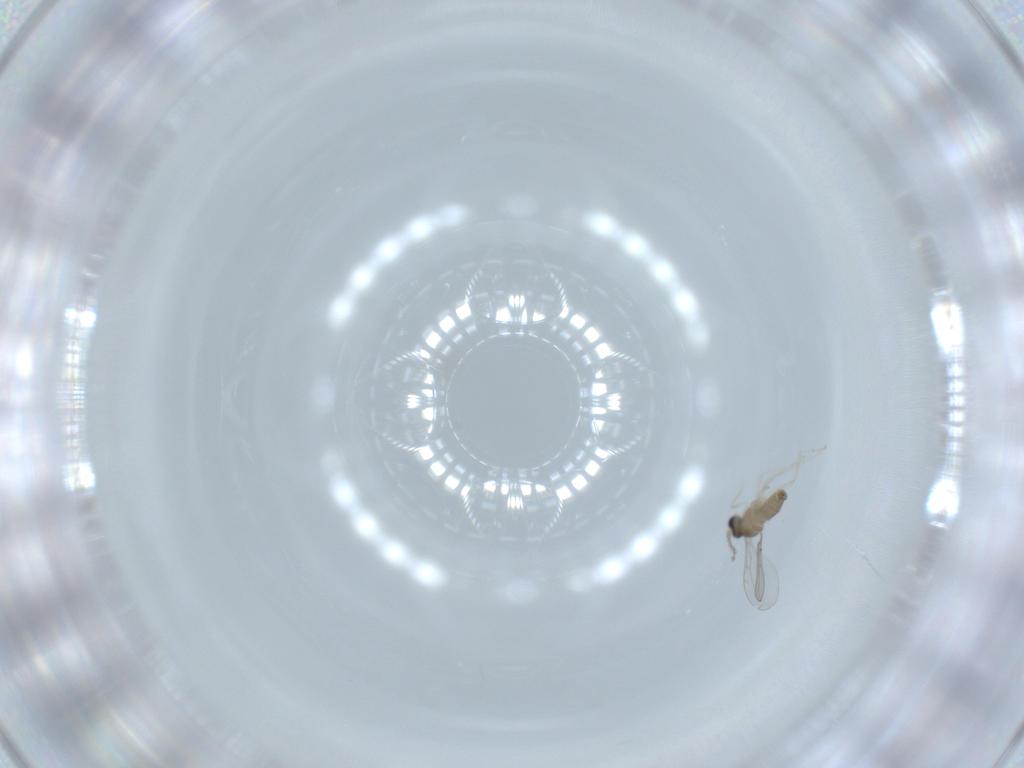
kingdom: Animalia
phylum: Arthropoda
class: Insecta
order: Diptera
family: Cecidomyiidae
